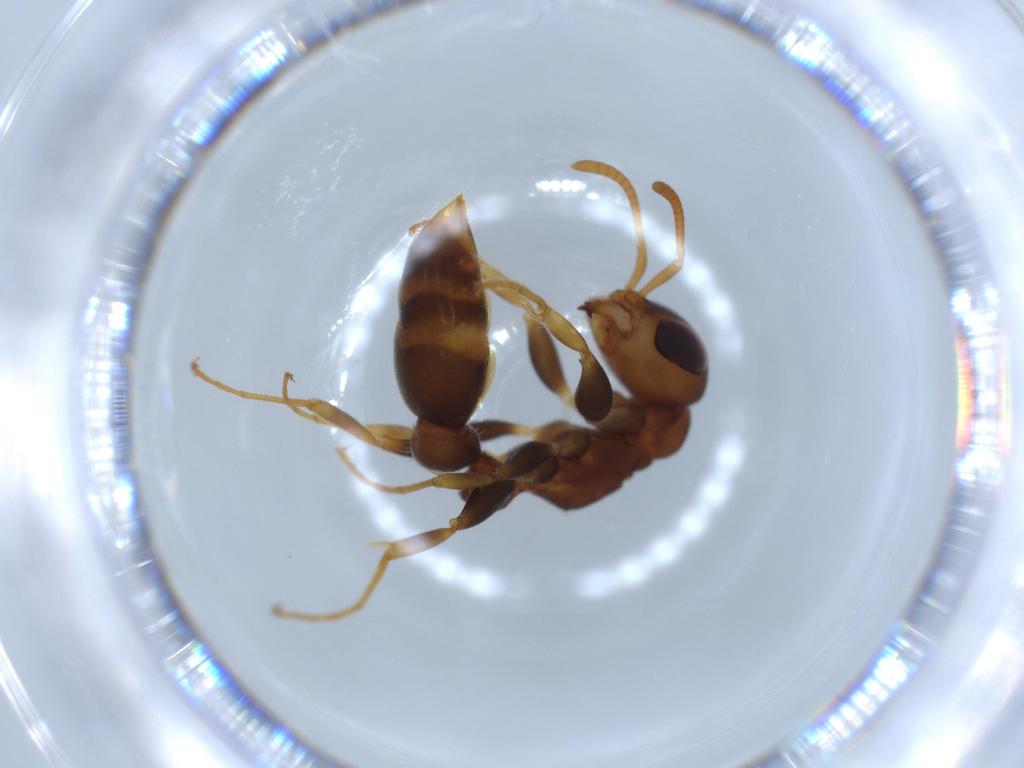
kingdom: Animalia
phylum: Arthropoda
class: Insecta
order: Hymenoptera
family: Formicidae
